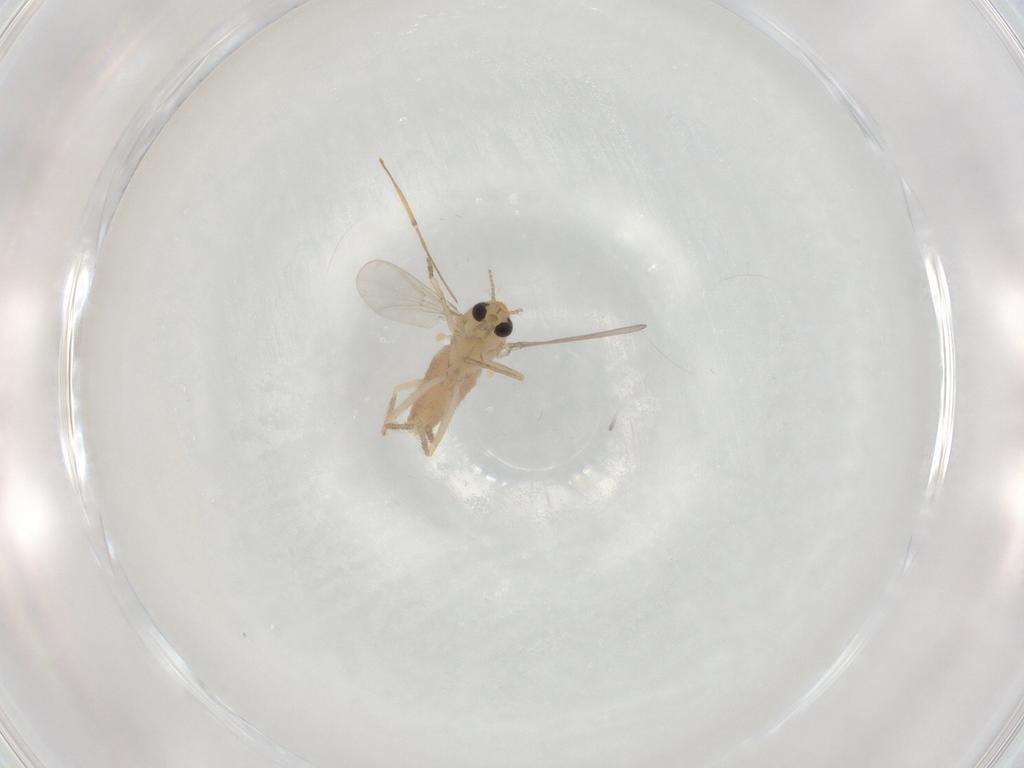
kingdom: Animalia
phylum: Arthropoda
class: Insecta
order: Diptera
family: Chironomidae
